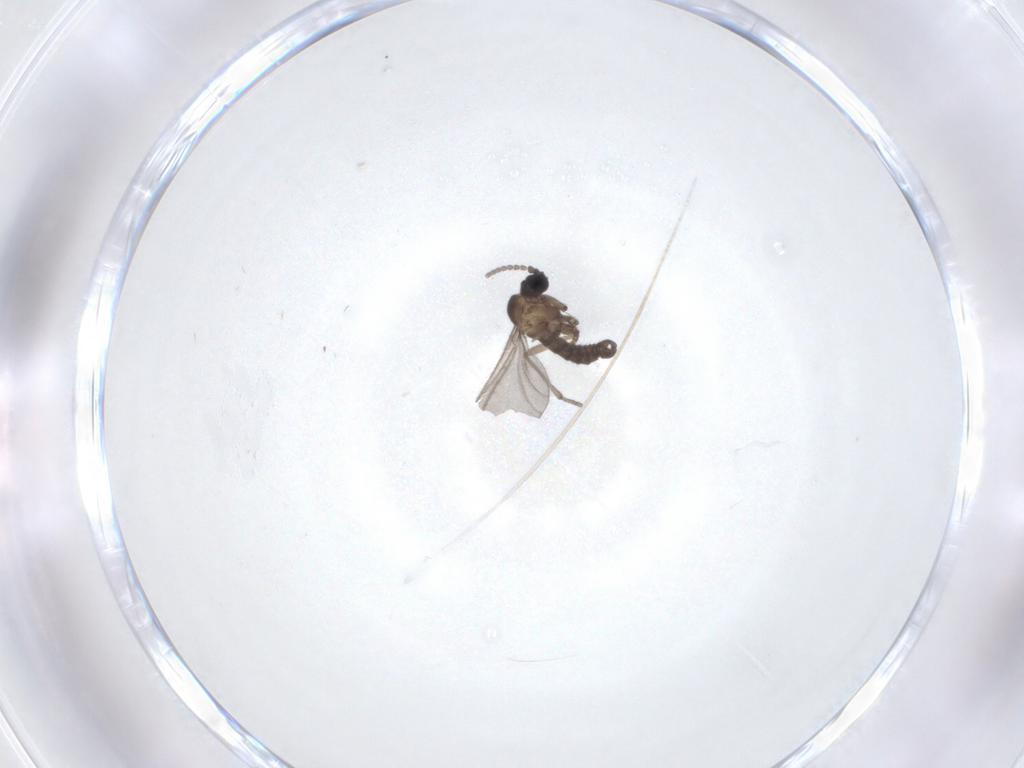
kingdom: Animalia
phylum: Arthropoda
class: Insecta
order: Diptera
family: Sciaridae
